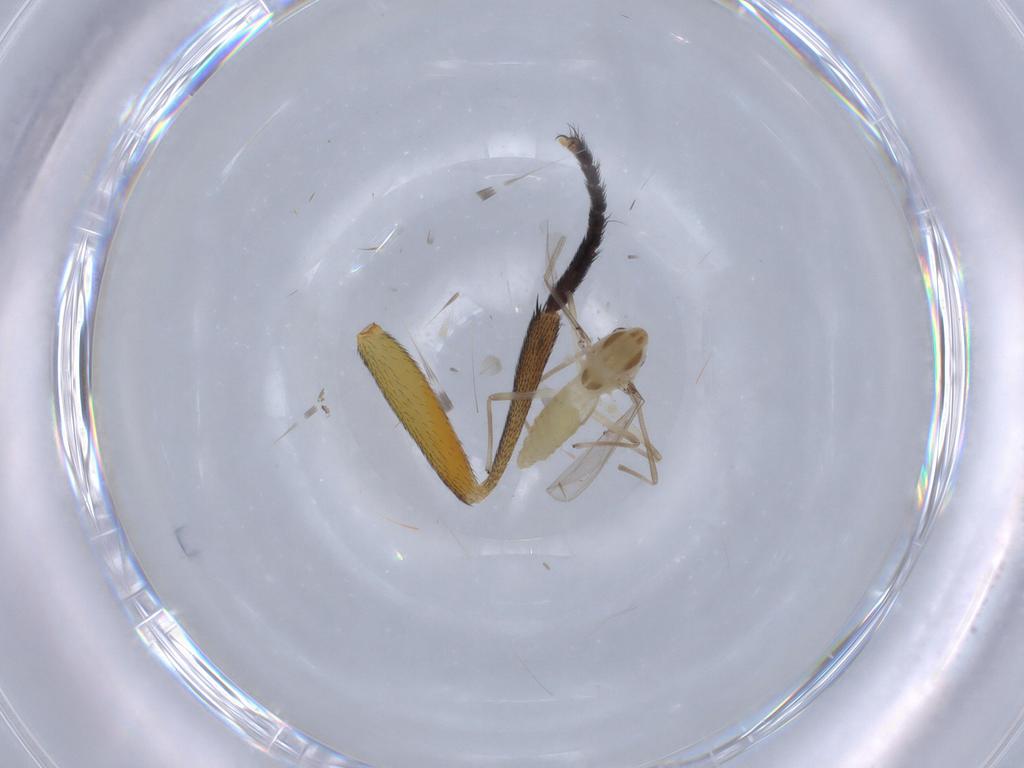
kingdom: Animalia
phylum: Arthropoda
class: Insecta
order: Diptera
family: Chironomidae
